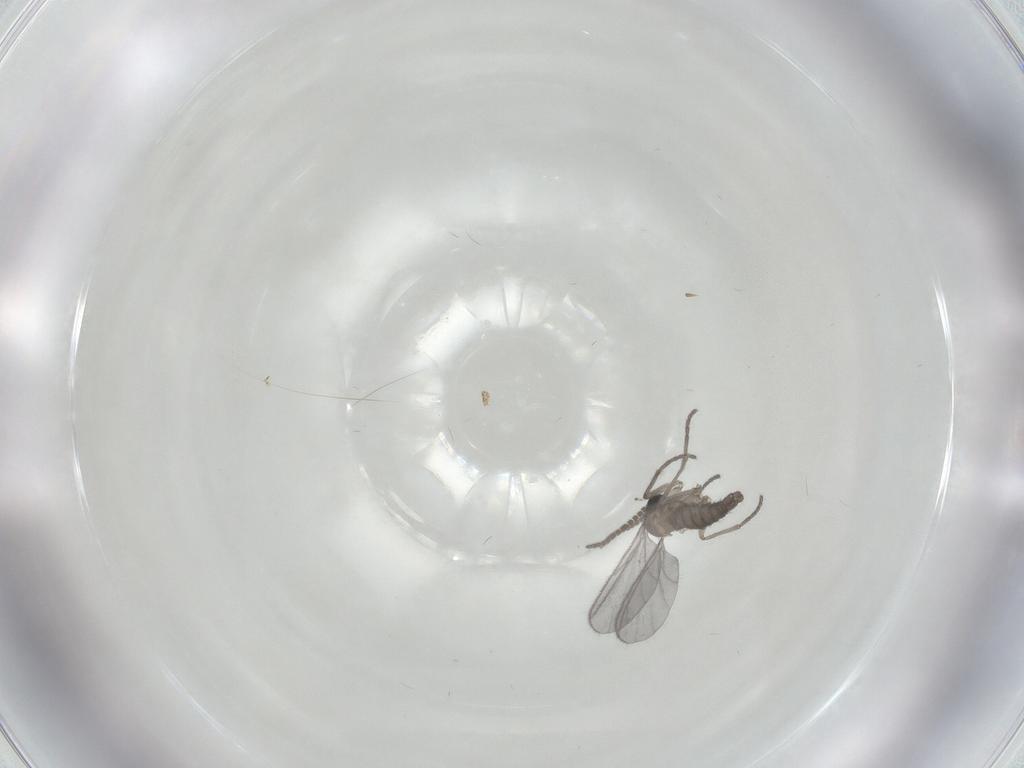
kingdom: Animalia
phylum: Arthropoda
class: Insecta
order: Diptera
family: Sciaridae
